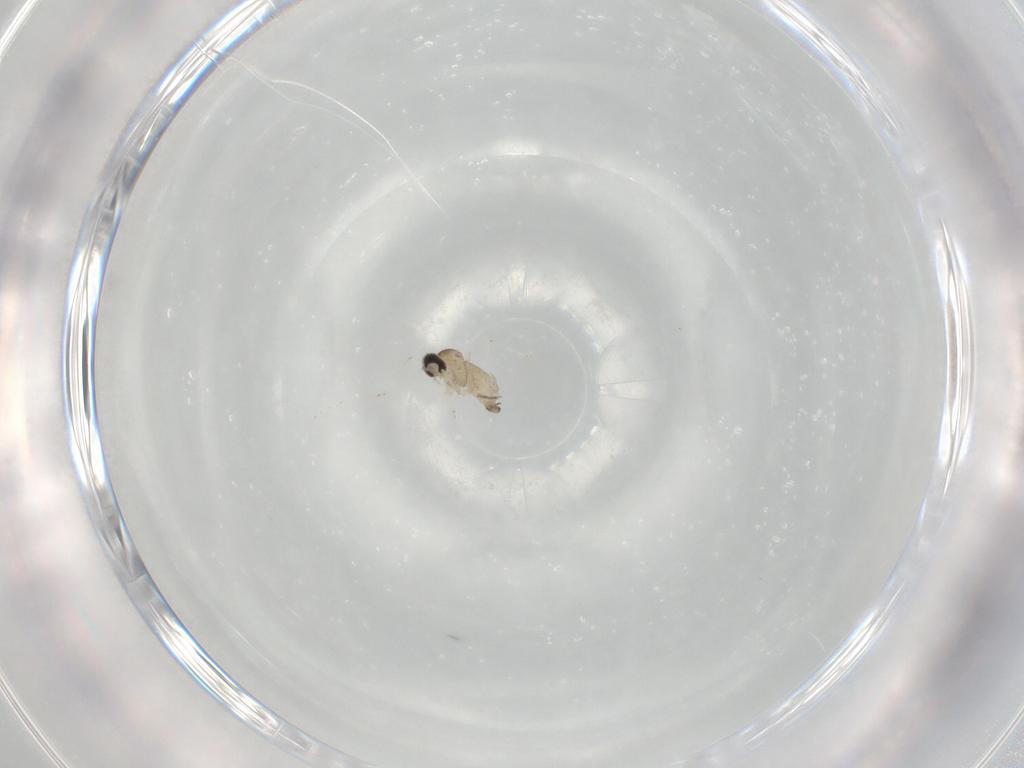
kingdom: Animalia
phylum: Arthropoda
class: Insecta
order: Diptera
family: Cecidomyiidae
